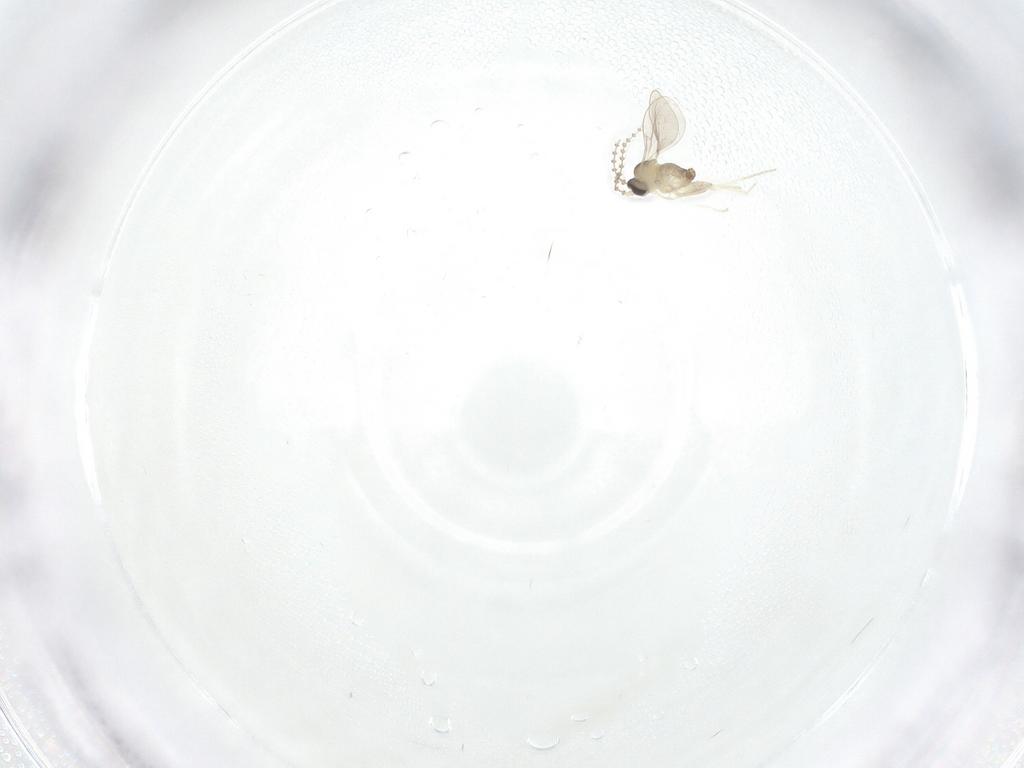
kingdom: Animalia
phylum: Arthropoda
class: Insecta
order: Diptera
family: Cecidomyiidae
